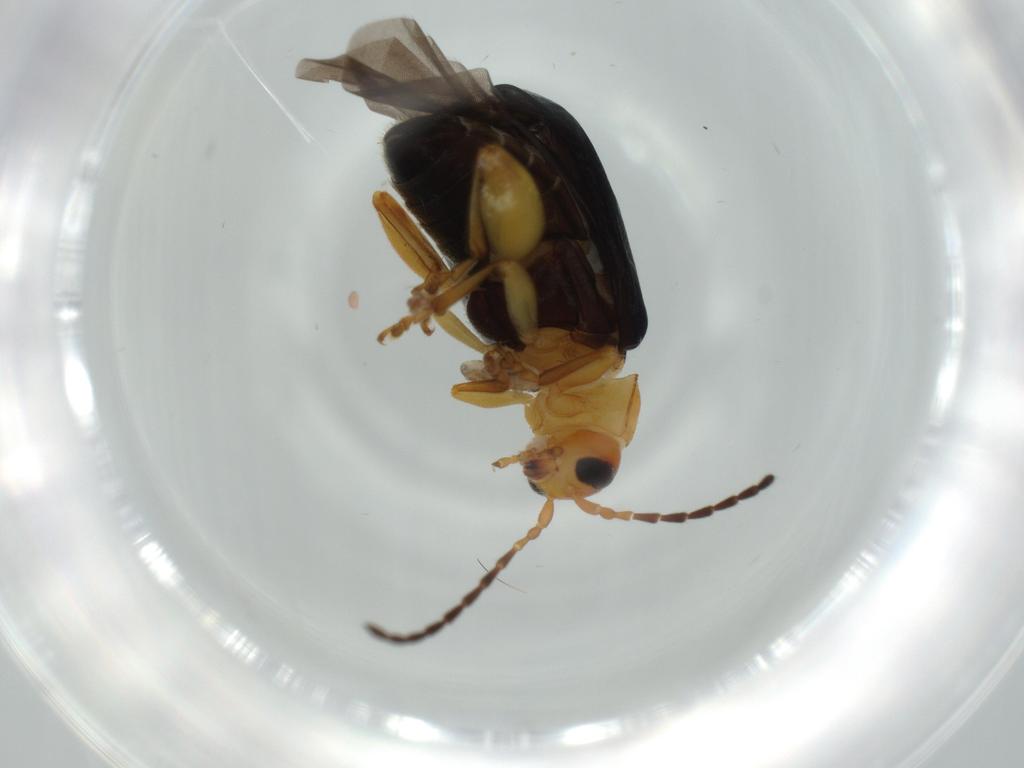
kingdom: Animalia
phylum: Arthropoda
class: Insecta
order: Coleoptera
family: Chrysomelidae
